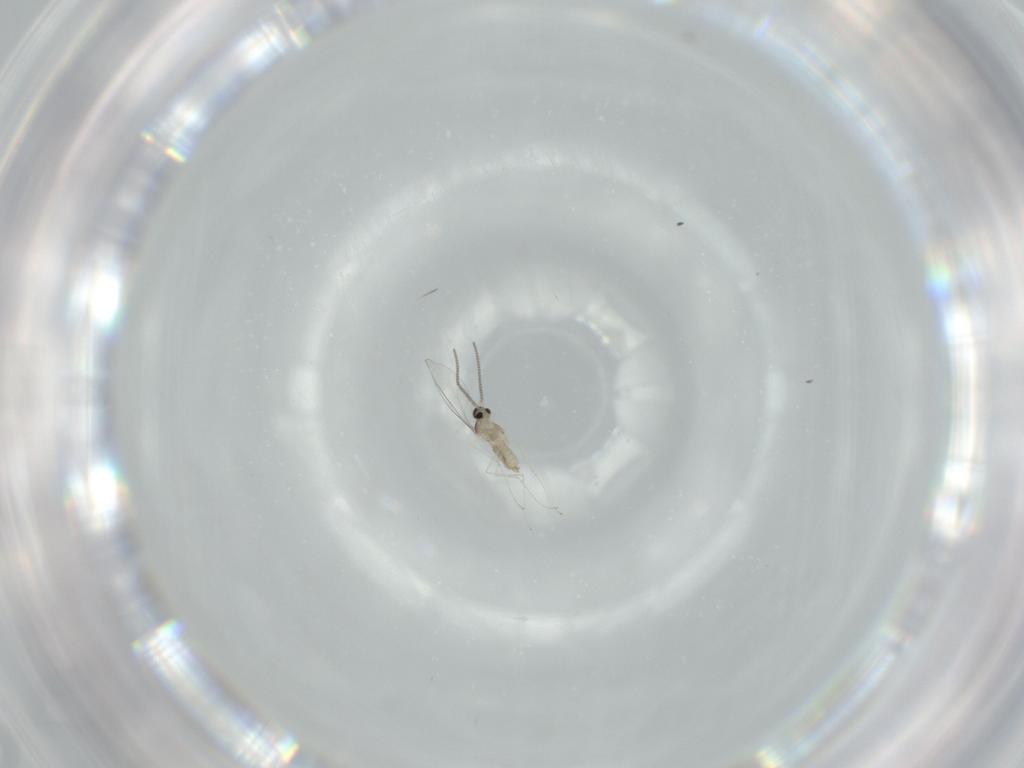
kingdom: Animalia
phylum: Arthropoda
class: Insecta
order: Diptera
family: Cecidomyiidae
